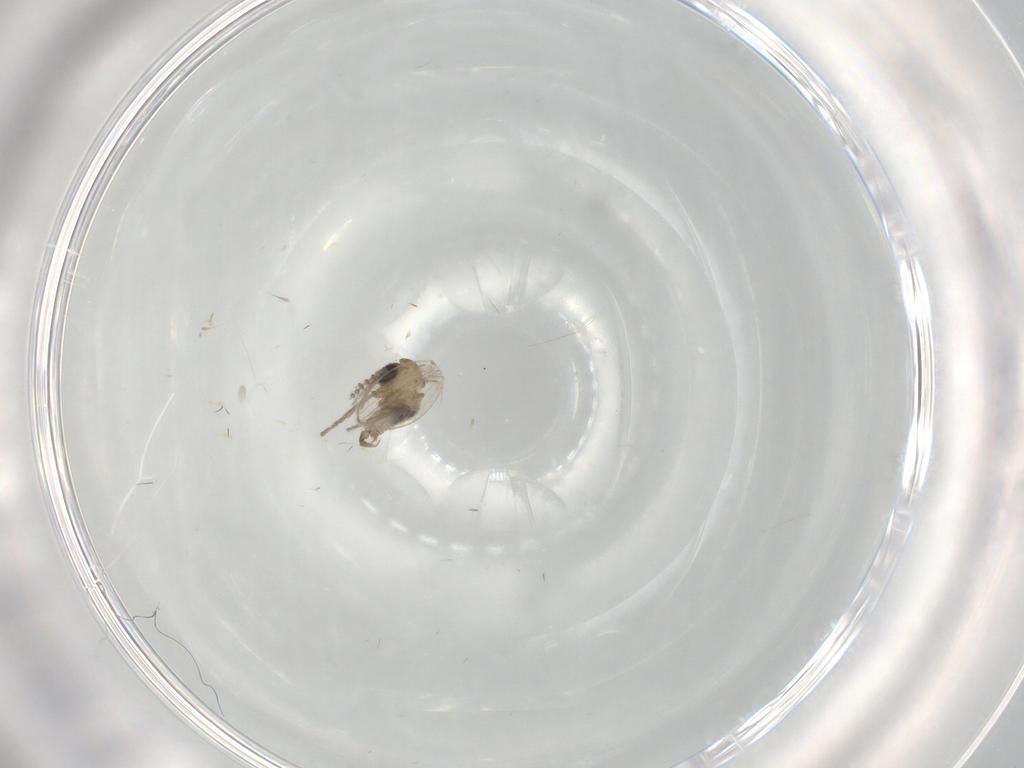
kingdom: Animalia
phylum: Arthropoda
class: Insecta
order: Diptera
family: Psychodidae
